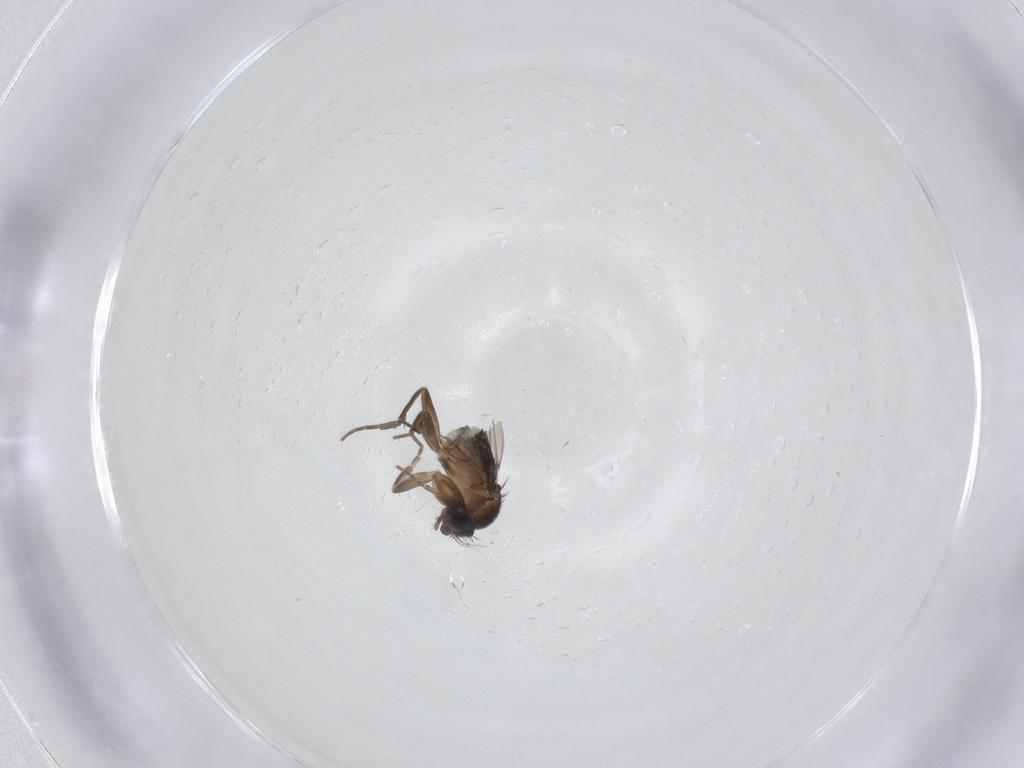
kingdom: Animalia
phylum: Arthropoda
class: Insecta
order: Diptera
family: Phoridae
